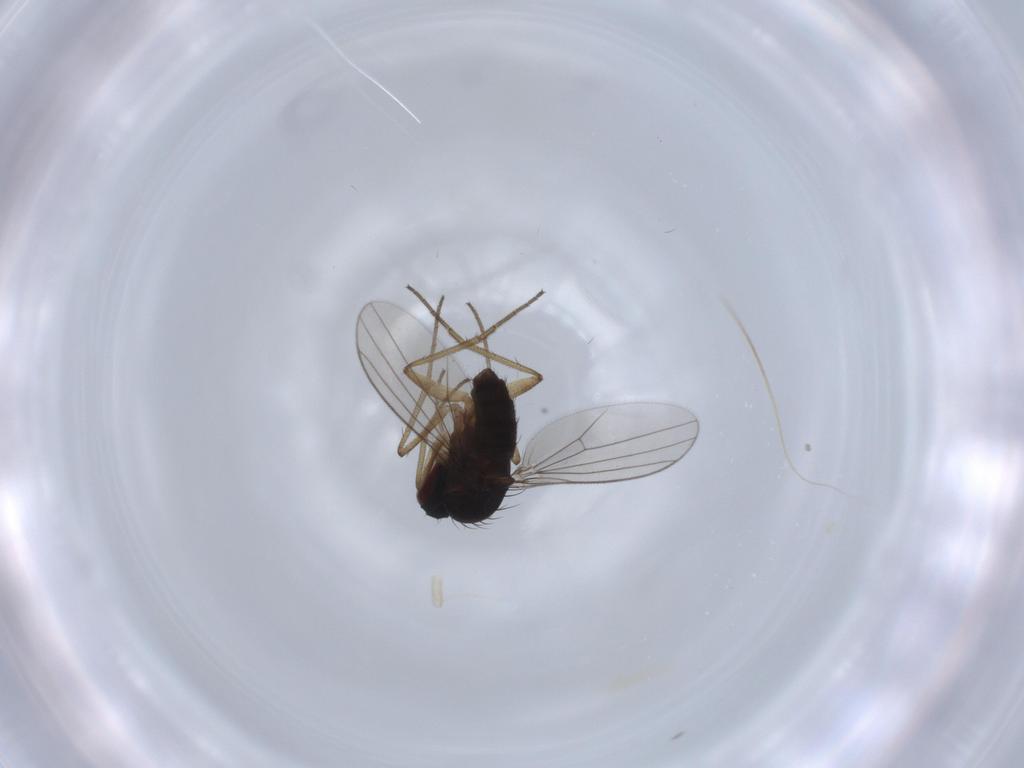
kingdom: Animalia
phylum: Arthropoda
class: Insecta
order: Diptera
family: Dolichopodidae
